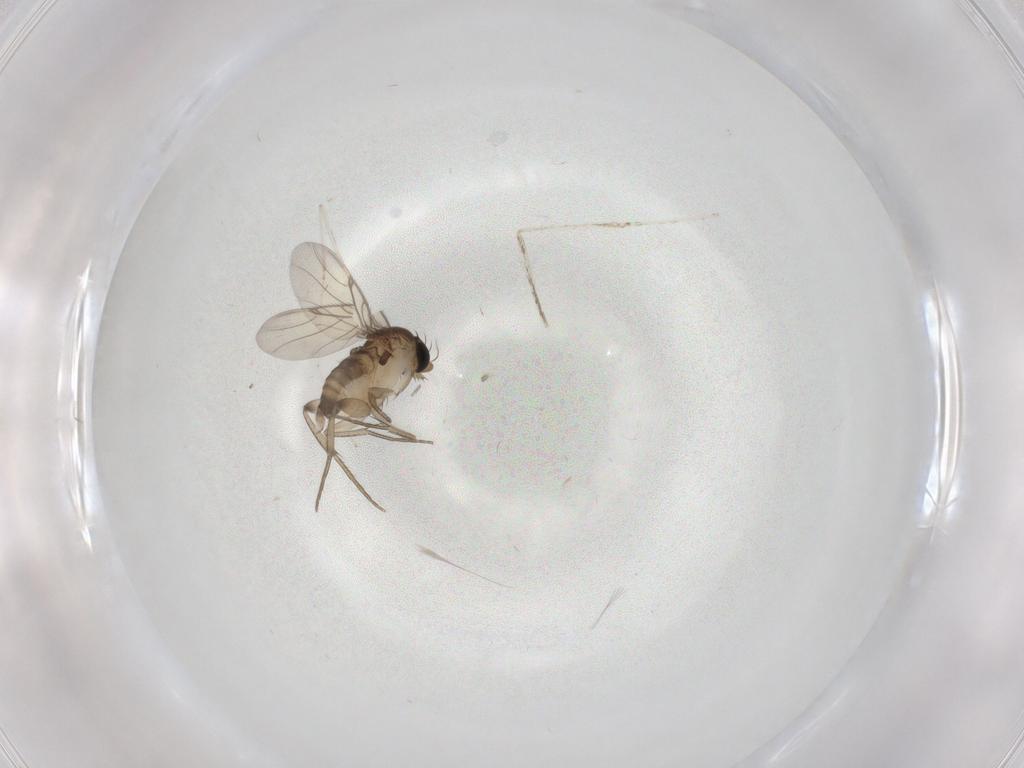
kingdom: Animalia
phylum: Arthropoda
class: Insecta
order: Diptera
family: Phoridae
